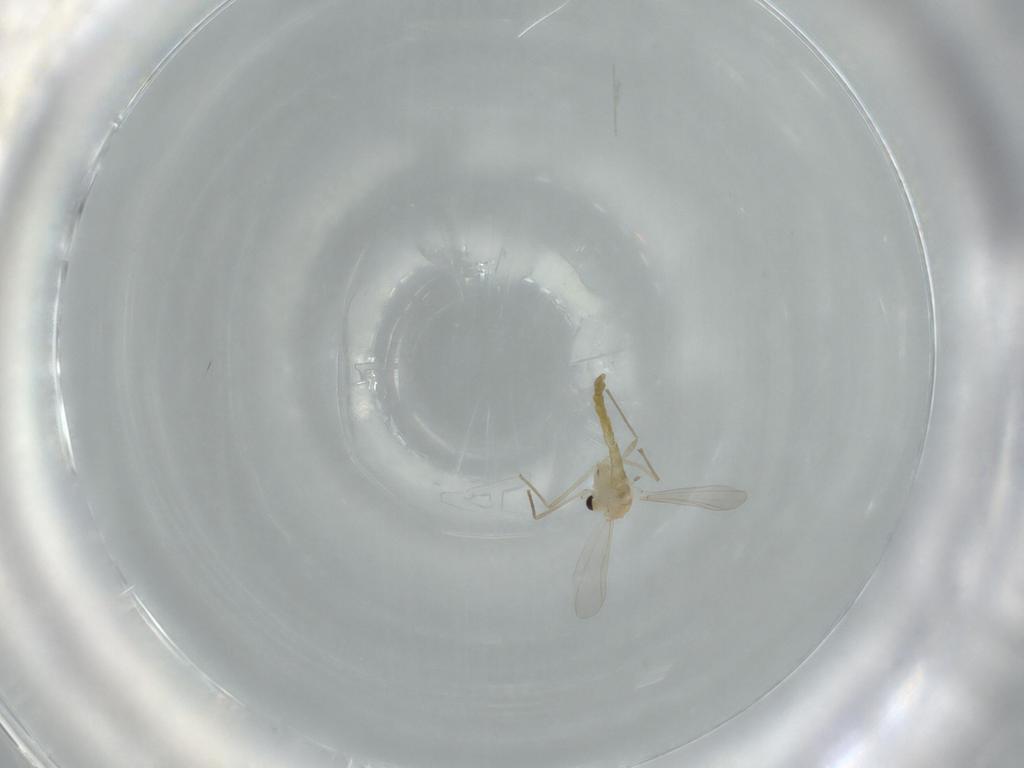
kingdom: Animalia
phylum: Arthropoda
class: Insecta
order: Diptera
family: Chironomidae
